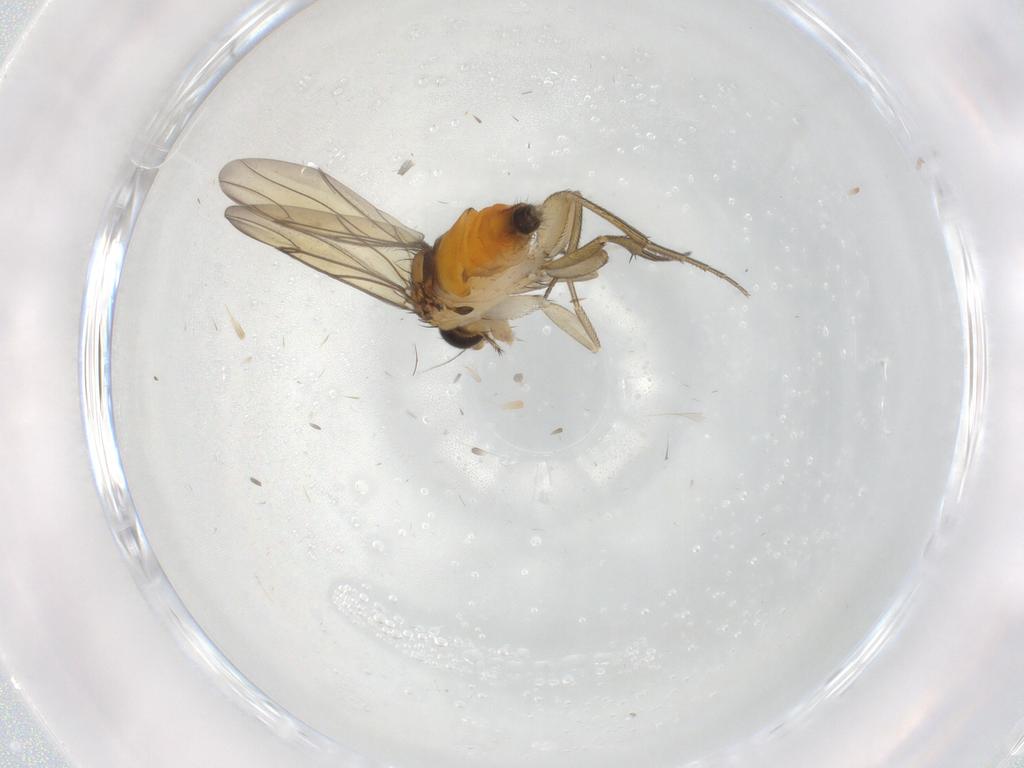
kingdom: Animalia
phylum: Arthropoda
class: Insecta
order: Diptera
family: Phoridae
